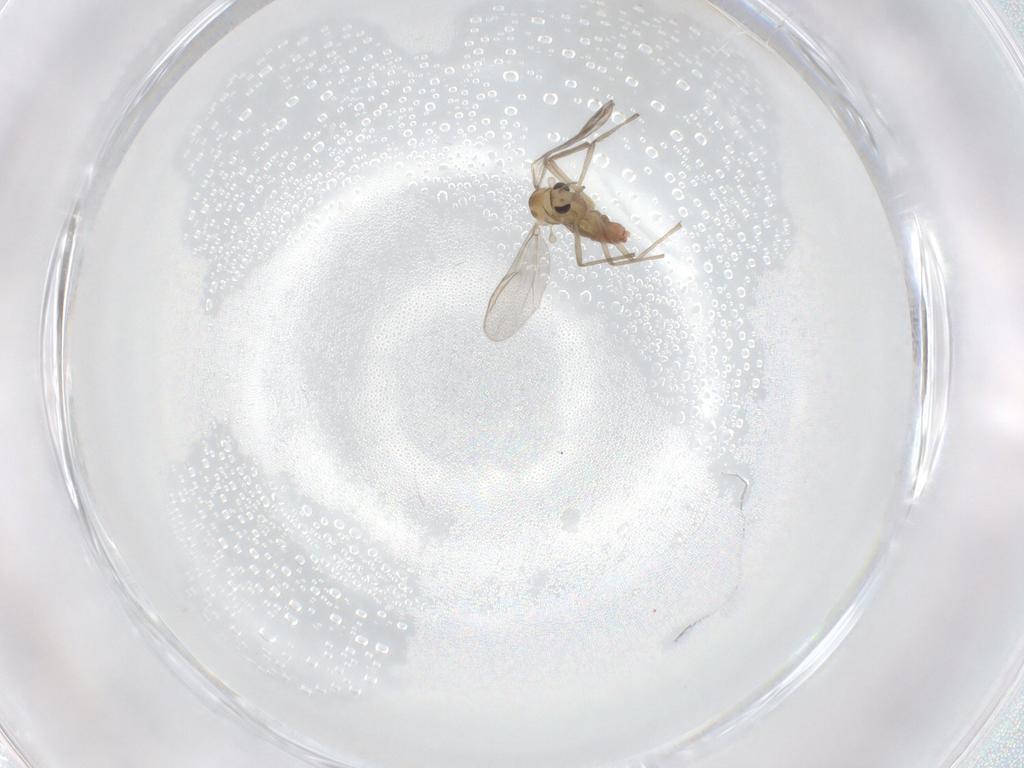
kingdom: Animalia
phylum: Arthropoda
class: Insecta
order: Diptera
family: Chironomidae
